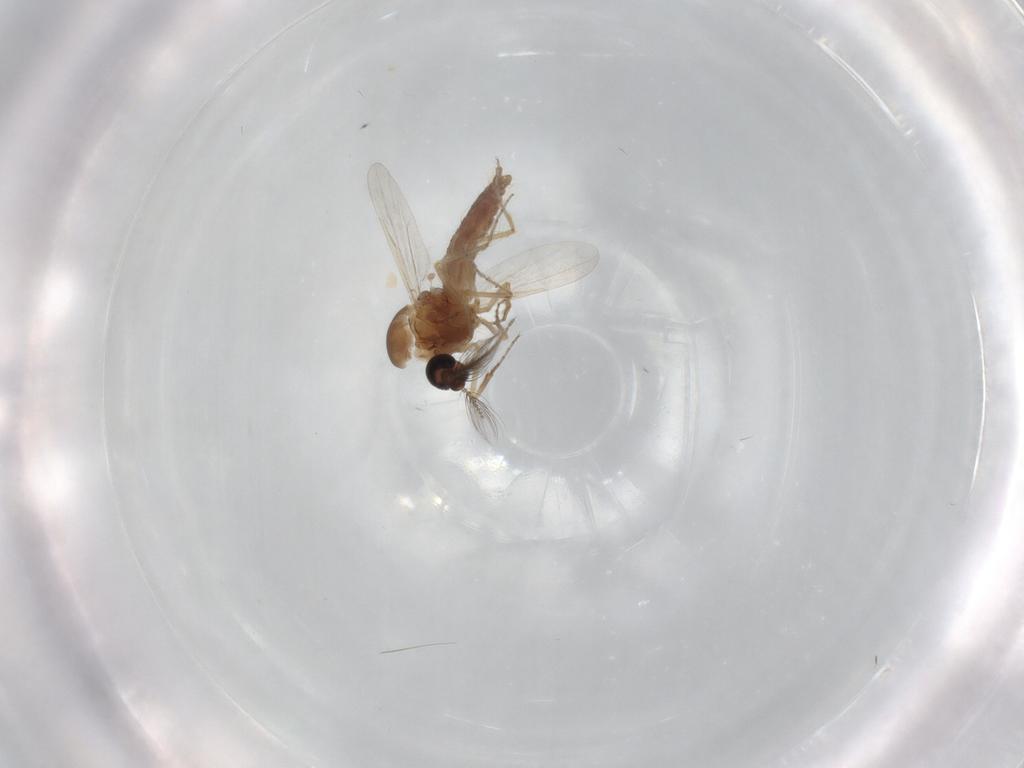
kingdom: Animalia
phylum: Arthropoda
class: Insecta
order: Diptera
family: Ceratopogonidae
